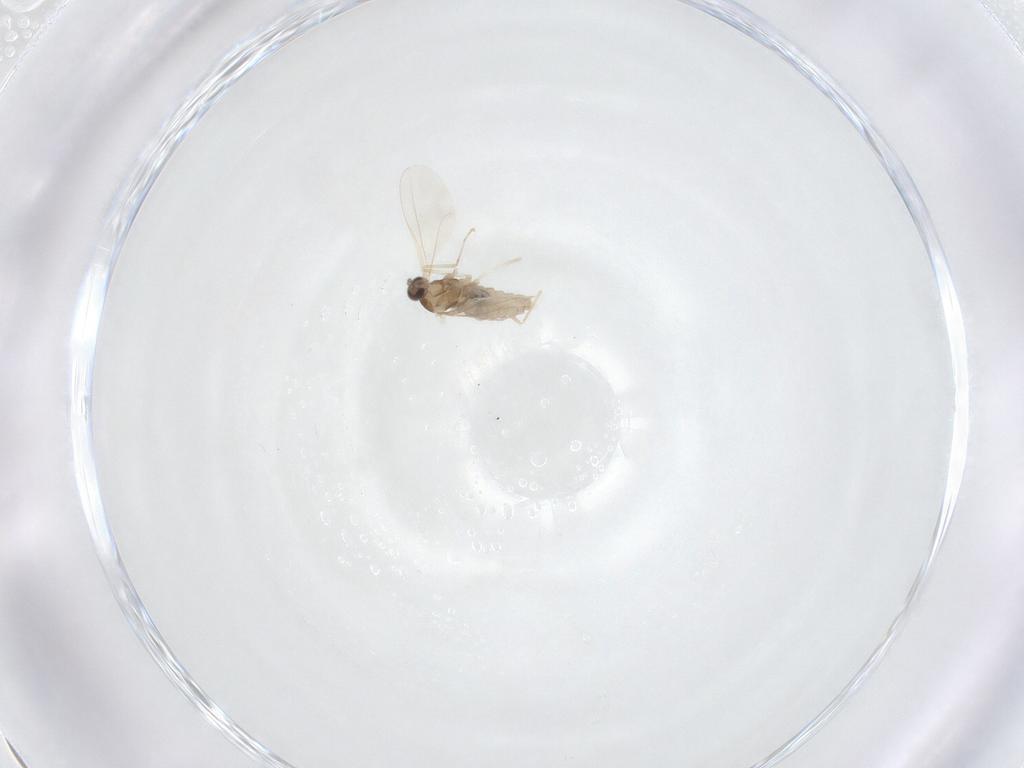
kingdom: Animalia
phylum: Arthropoda
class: Insecta
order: Diptera
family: Cecidomyiidae
